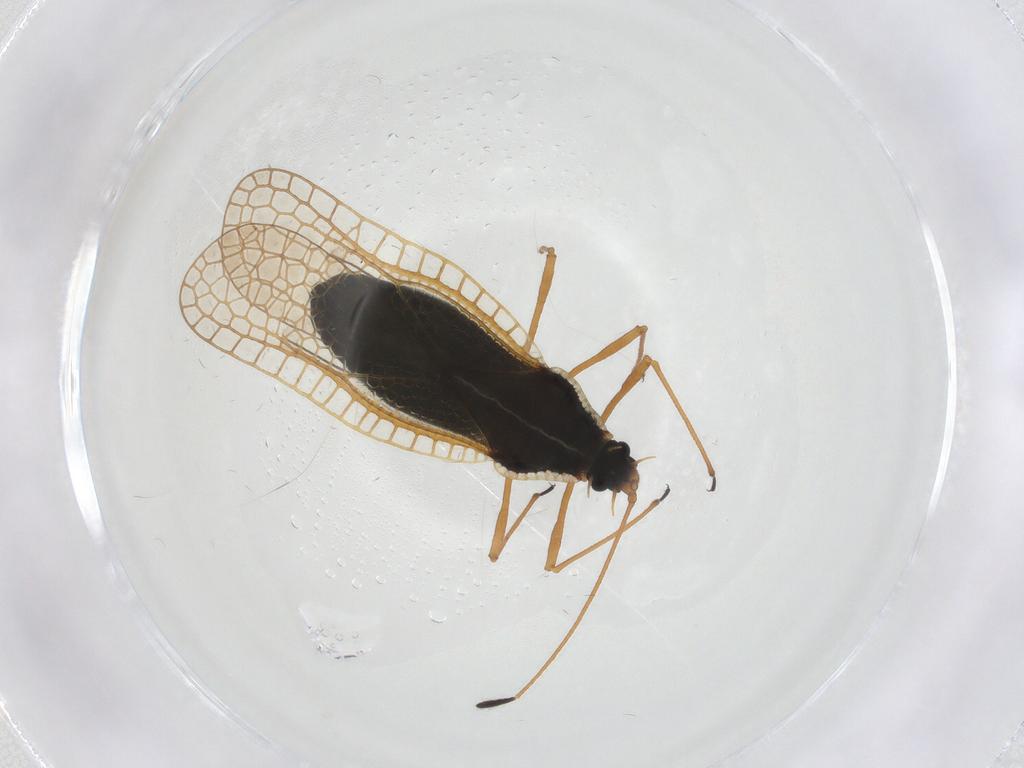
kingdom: Animalia
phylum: Arthropoda
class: Insecta
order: Hemiptera
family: Tingidae
